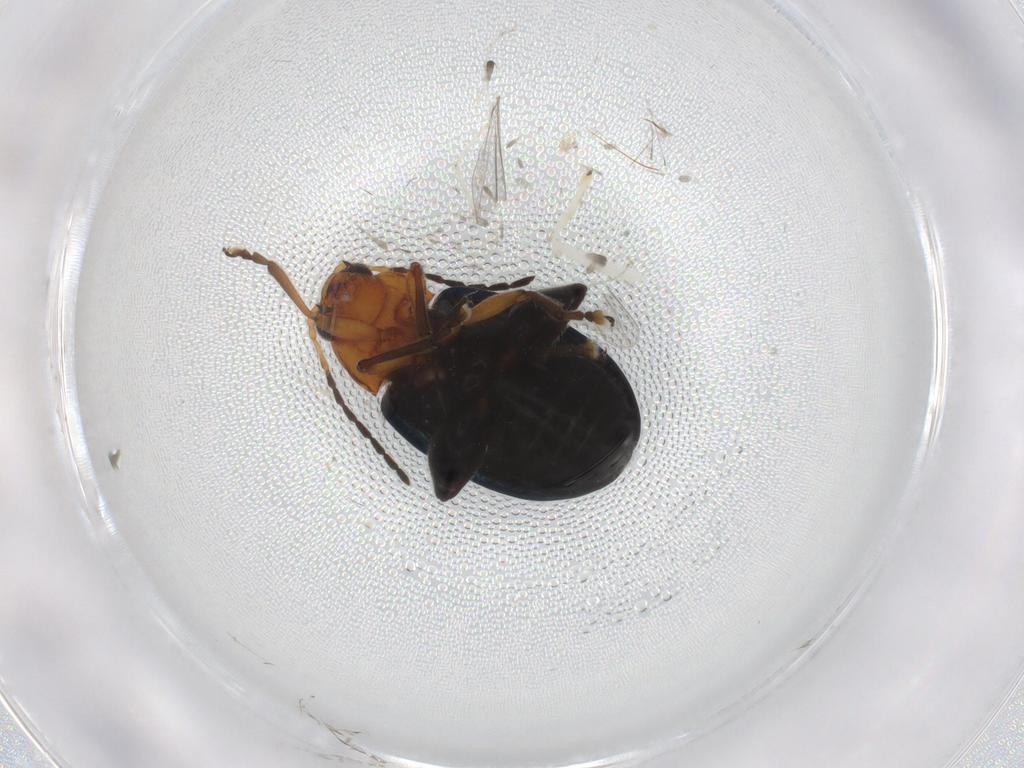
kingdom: Animalia
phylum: Arthropoda
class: Insecta
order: Coleoptera
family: Chrysomelidae
